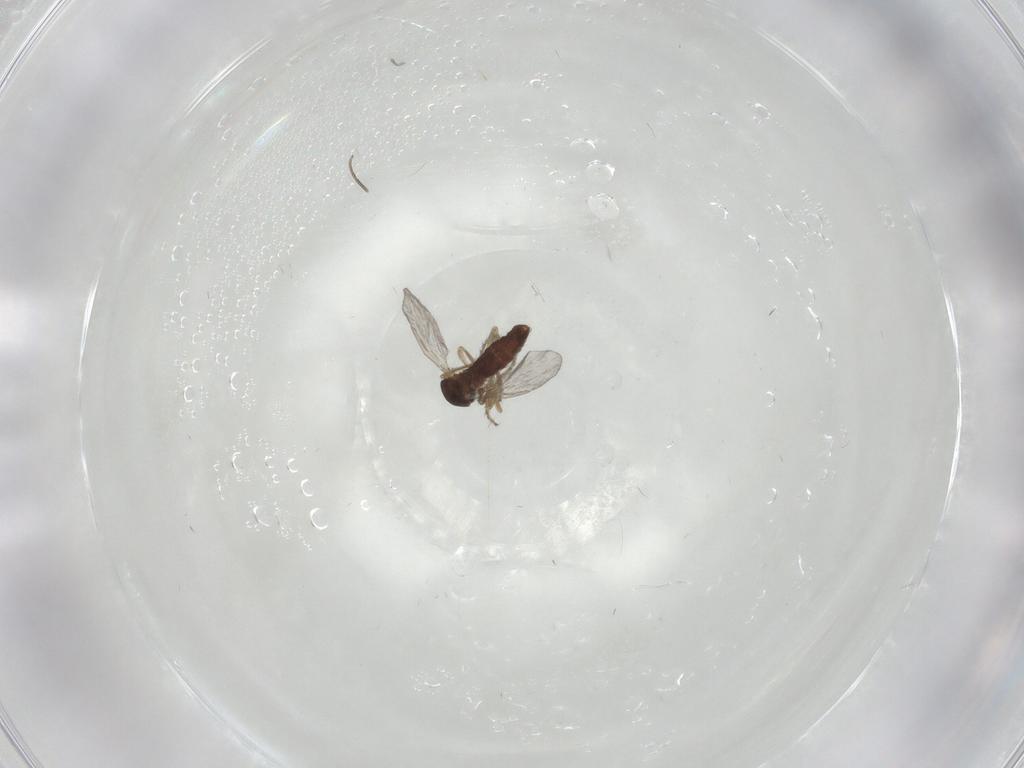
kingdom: Animalia
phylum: Arthropoda
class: Insecta
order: Diptera
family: Ceratopogonidae
